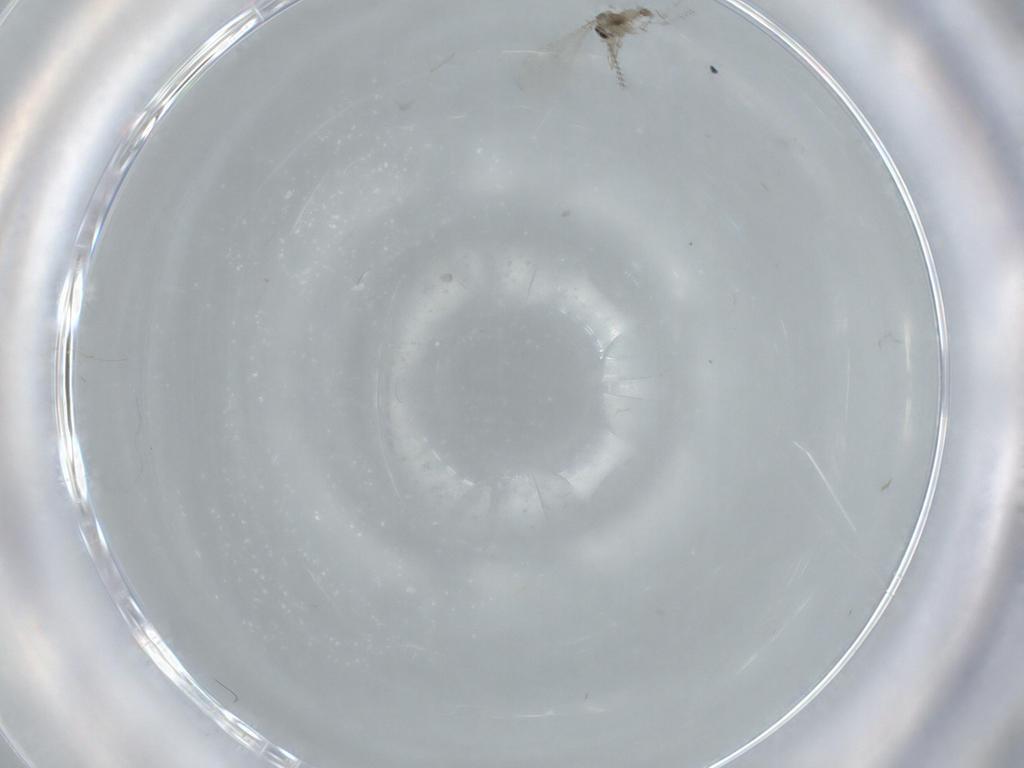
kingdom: Animalia
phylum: Arthropoda
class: Insecta
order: Diptera
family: Cecidomyiidae
